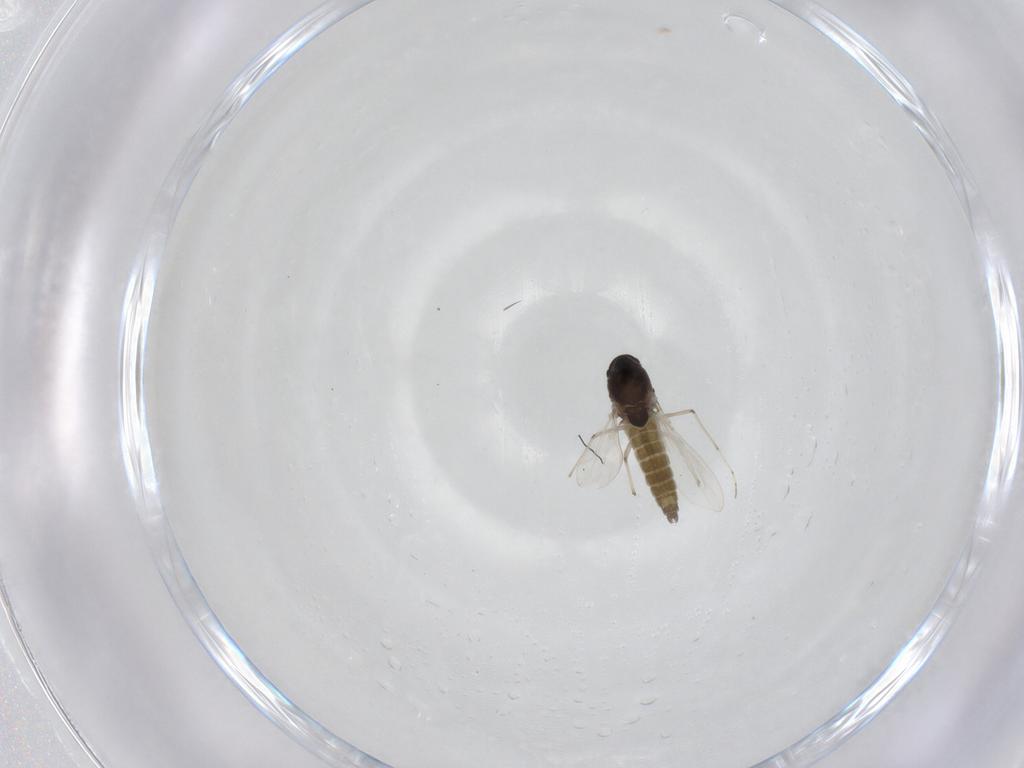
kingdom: Animalia
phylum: Arthropoda
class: Insecta
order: Diptera
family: Chironomidae
